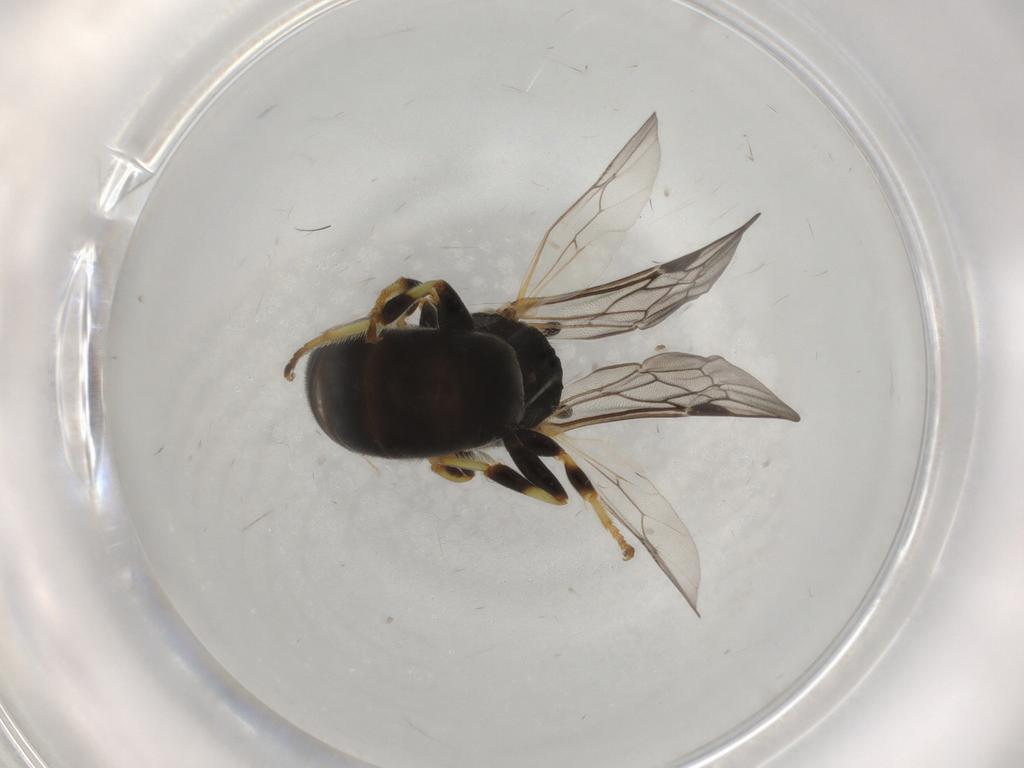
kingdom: Animalia
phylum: Arthropoda
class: Insecta
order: Hymenoptera
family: Colletidae
